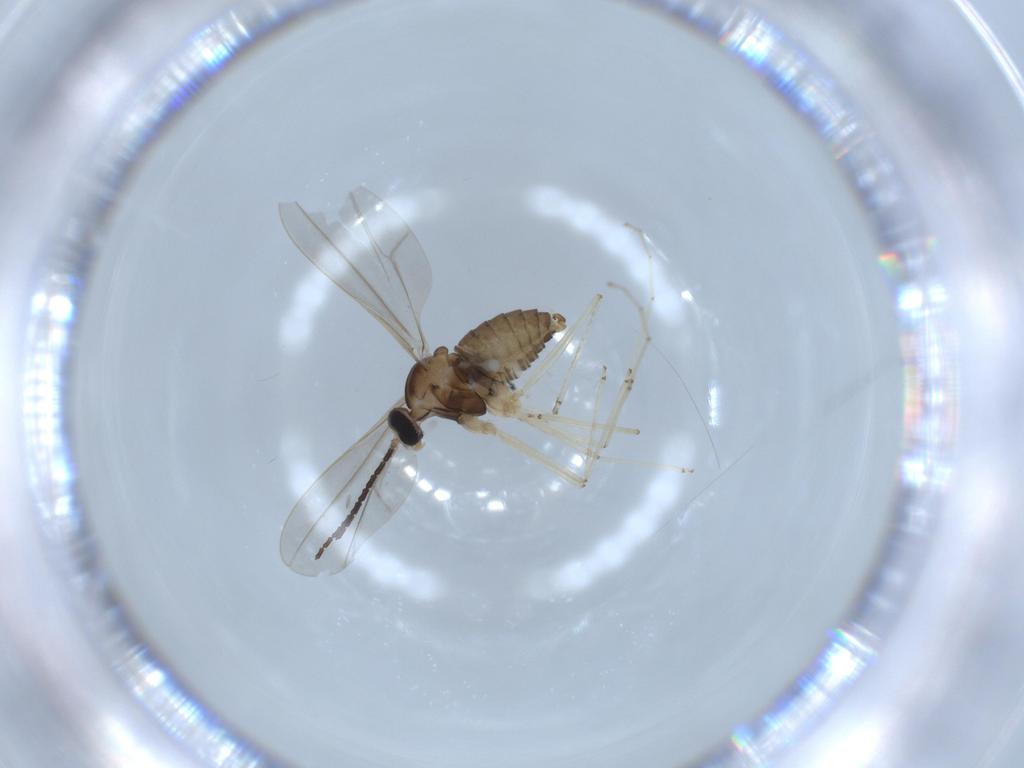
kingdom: Animalia
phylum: Arthropoda
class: Insecta
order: Diptera
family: Cecidomyiidae
